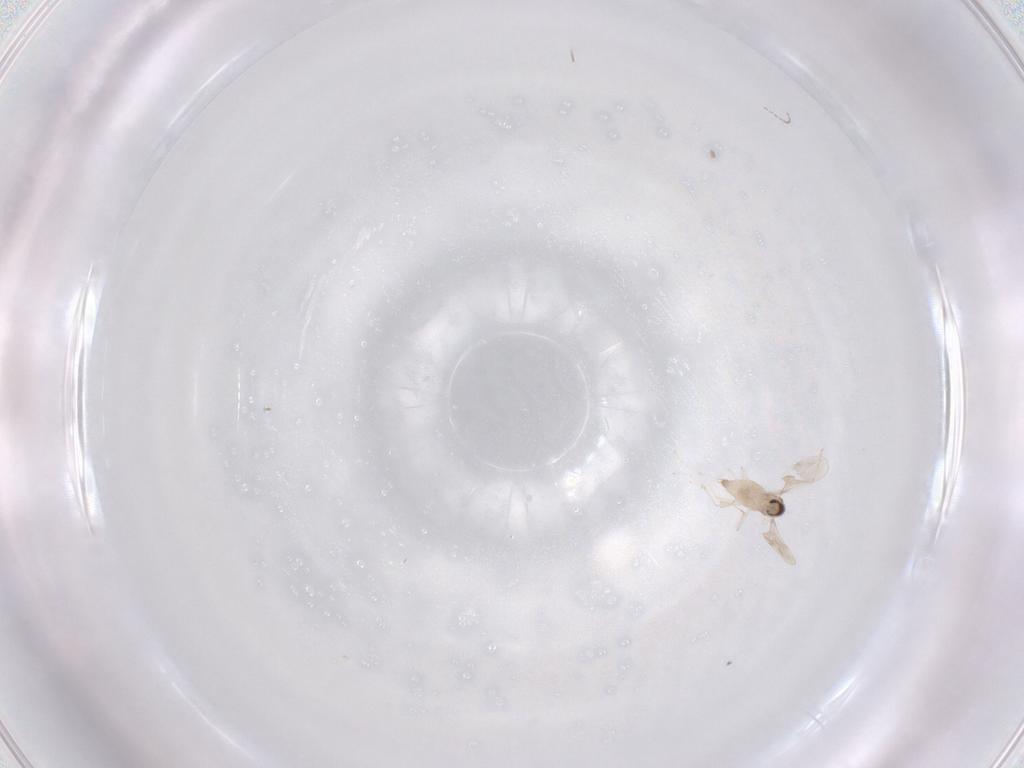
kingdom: Animalia
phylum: Arthropoda
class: Insecta
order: Diptera
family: Cecidomyiidae
